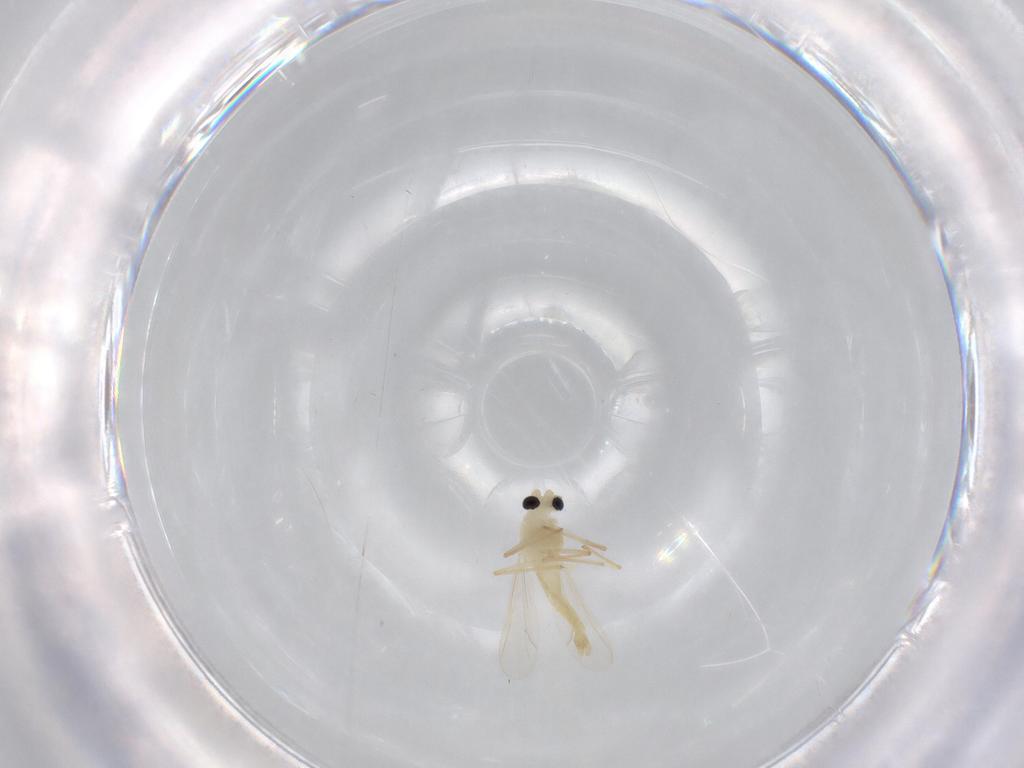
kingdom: Animalia
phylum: Arthropoda
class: Insecta
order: Diptera
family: Chironomidae
